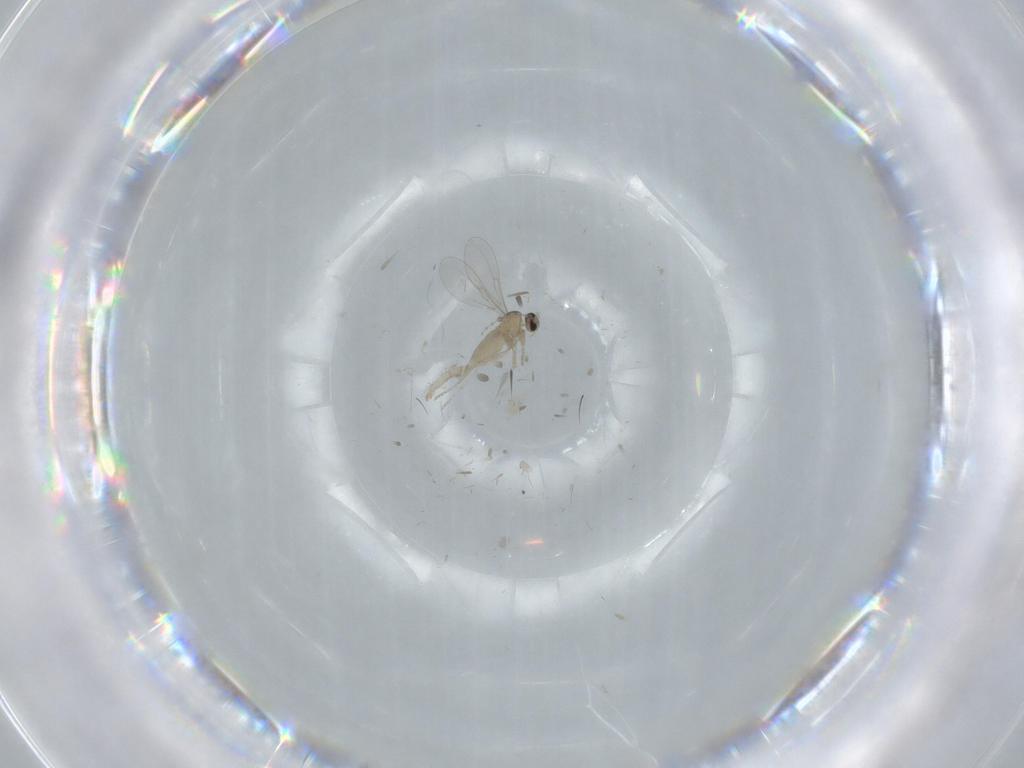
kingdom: Animalia
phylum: Arthropoda
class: Insecta
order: Diptera
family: Cecidomyiidae
